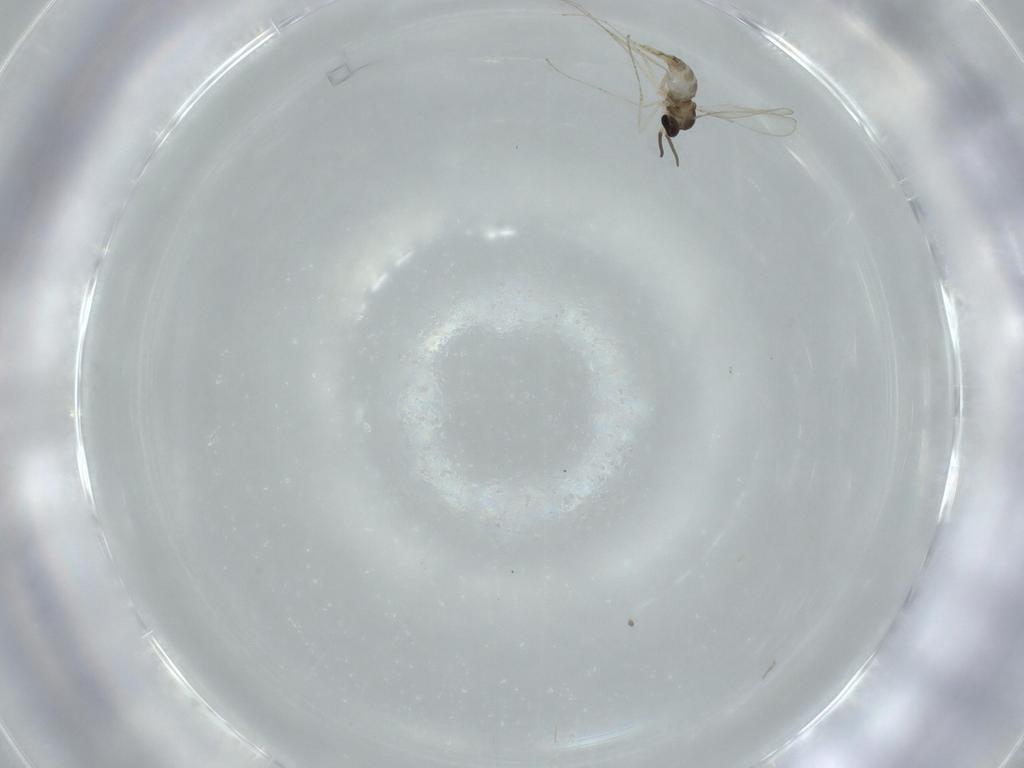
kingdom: Animalia
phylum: Arthropoda
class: Insecta
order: Diptera
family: Cecidomyiidae
